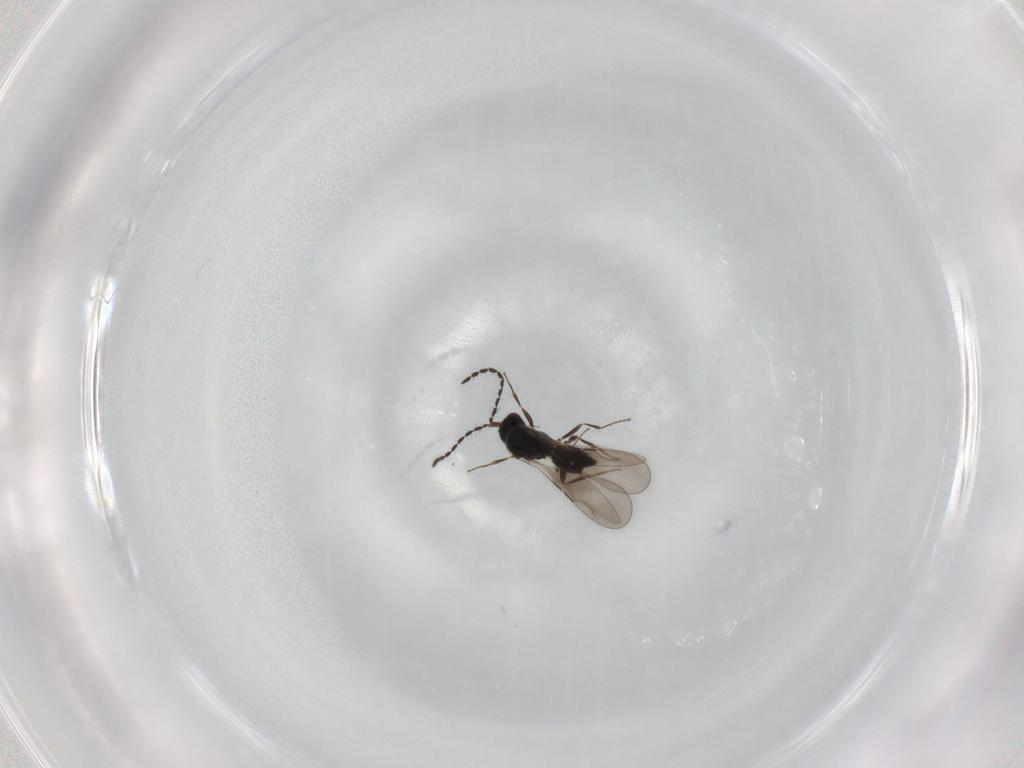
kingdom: Animalia
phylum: Arthropoda
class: Insecta
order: Hymenoptera
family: Ceraphronidae
